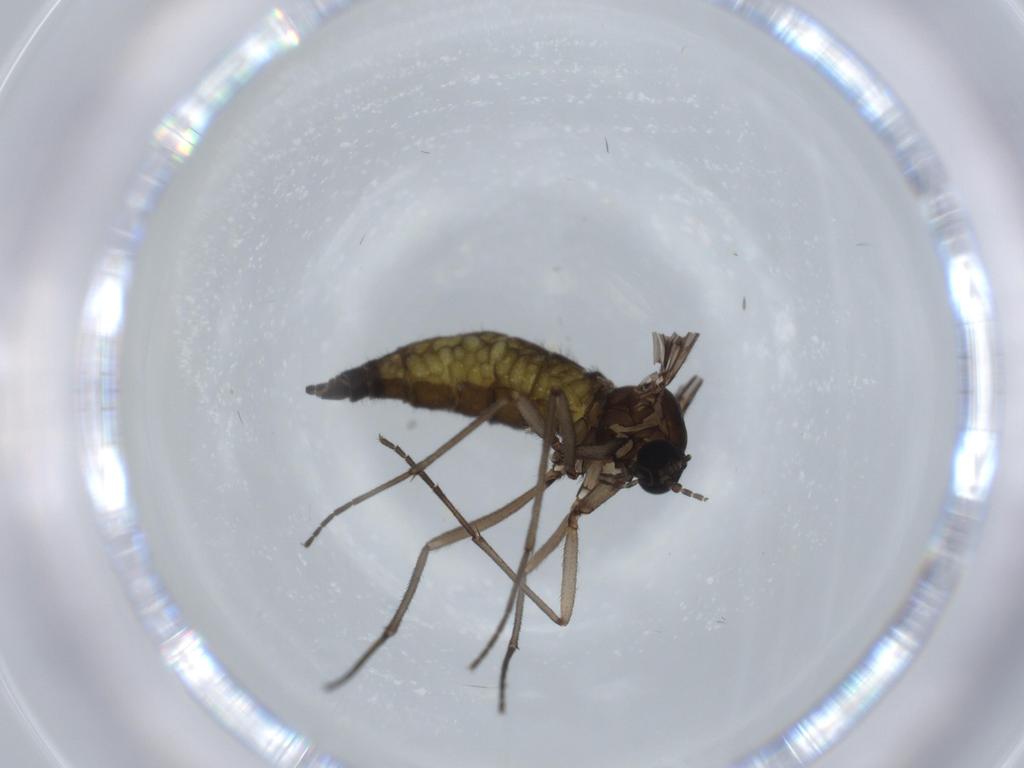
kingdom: Animalia
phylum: Arthropoda
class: Insecta
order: Diptera
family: Sciaridae
